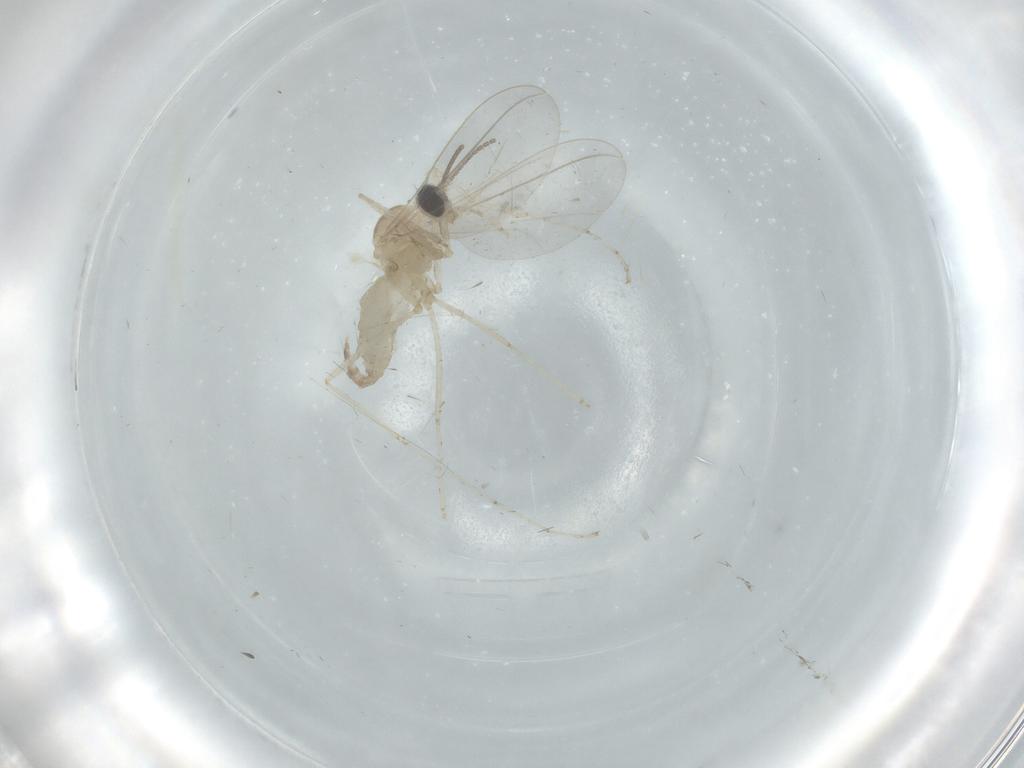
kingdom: Animalia
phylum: Arthropoda
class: Insecta
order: Diptera
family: Cecidomyiidae
